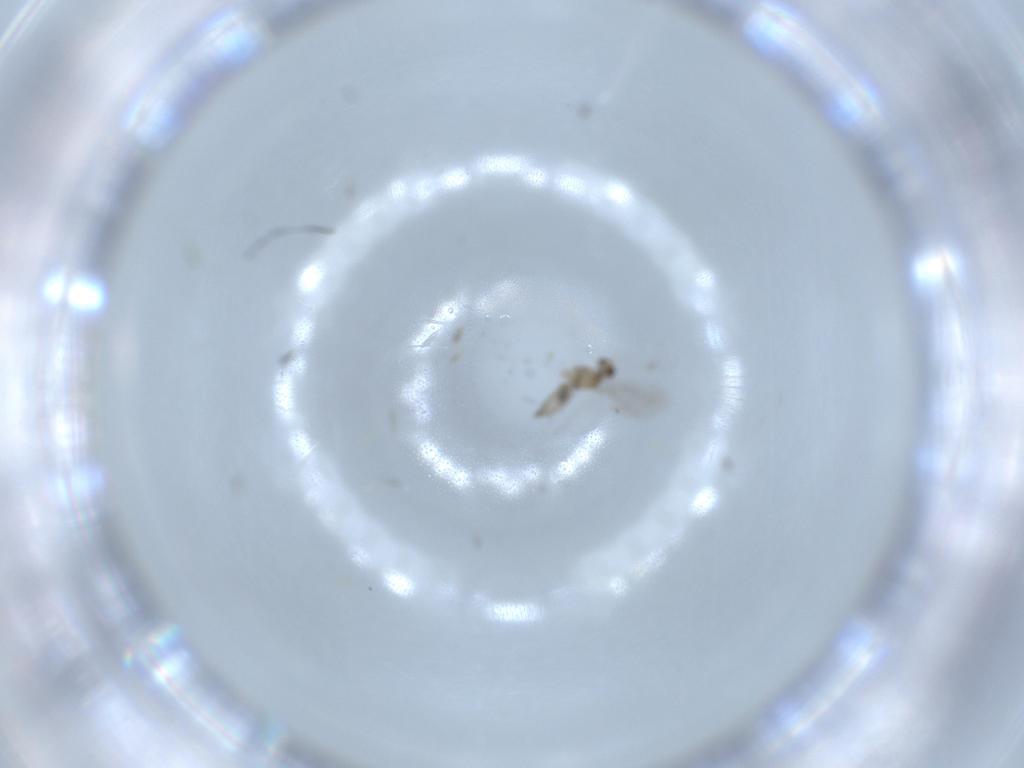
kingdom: Animalia
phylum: Arthropoda
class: Insecta
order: Diptera
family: Cecidomyiidae
